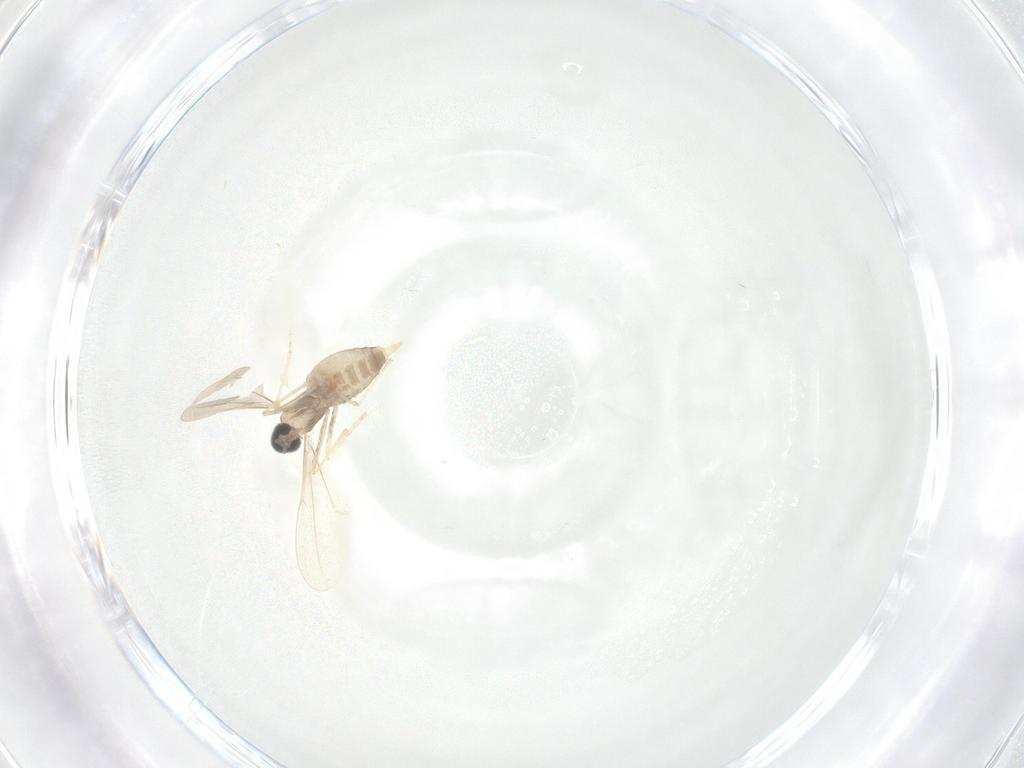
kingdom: Animalia
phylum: Arthropoda
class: Insecta
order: Diptera
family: Cecidomyiidae
